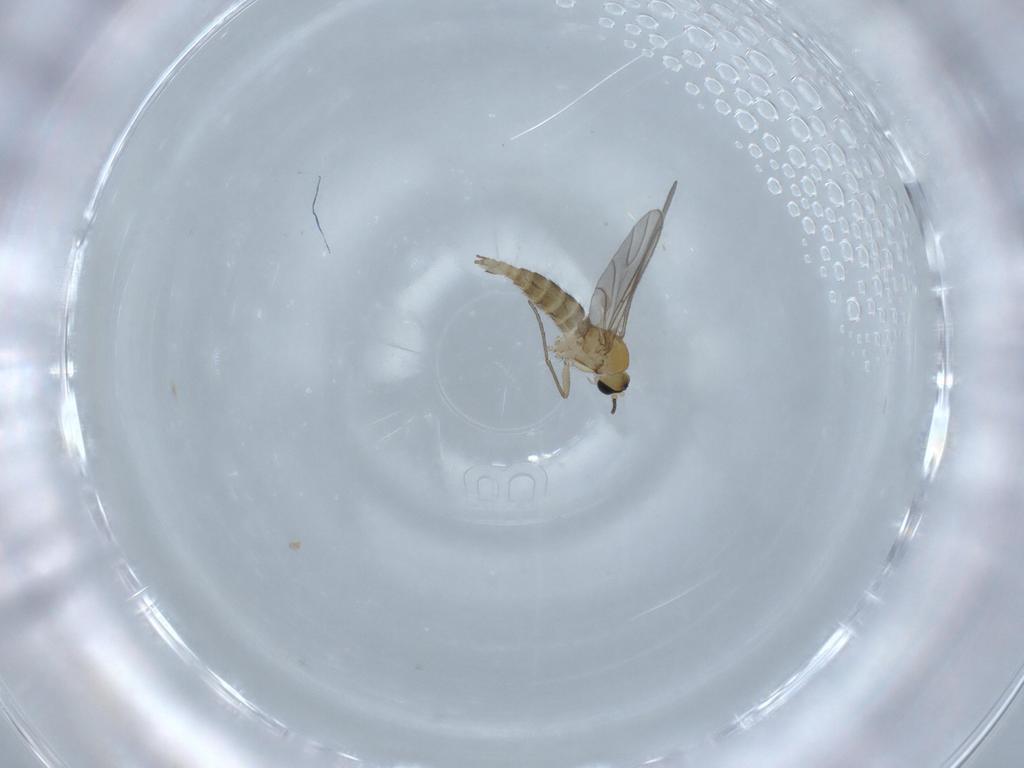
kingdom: Animalia
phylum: Arthropoda
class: Insecta
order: Diptera
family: Sciaridae
